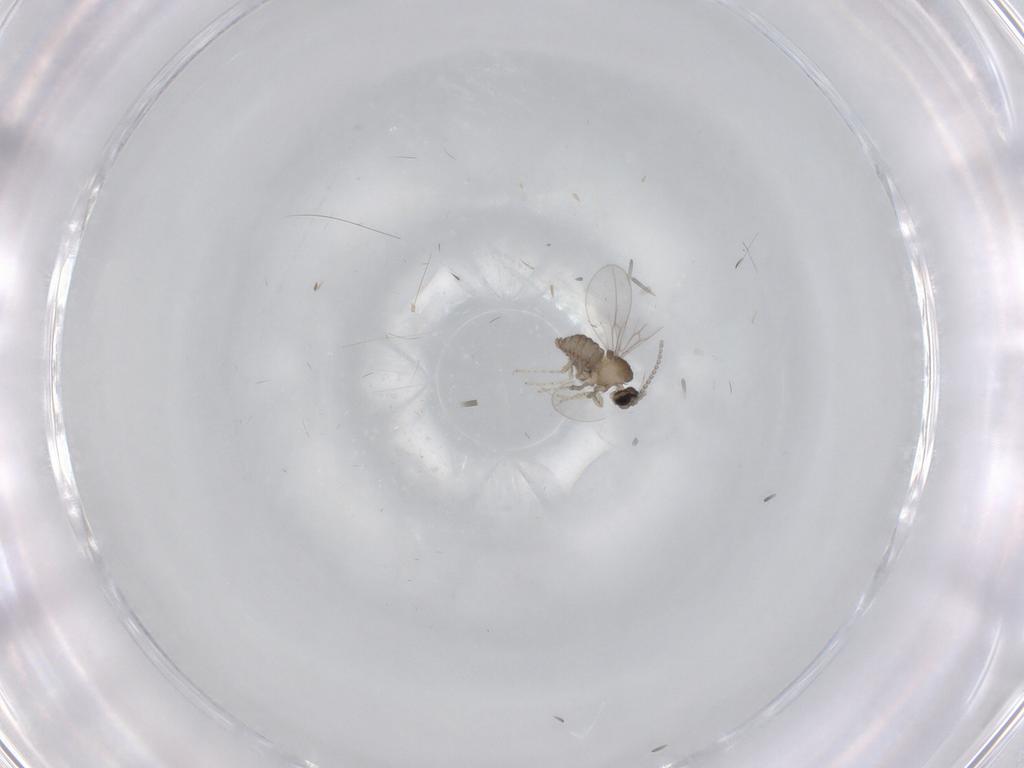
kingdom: Animalia
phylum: Arthropoda
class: Insecta
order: Diptera
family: Cecidomyiidae
